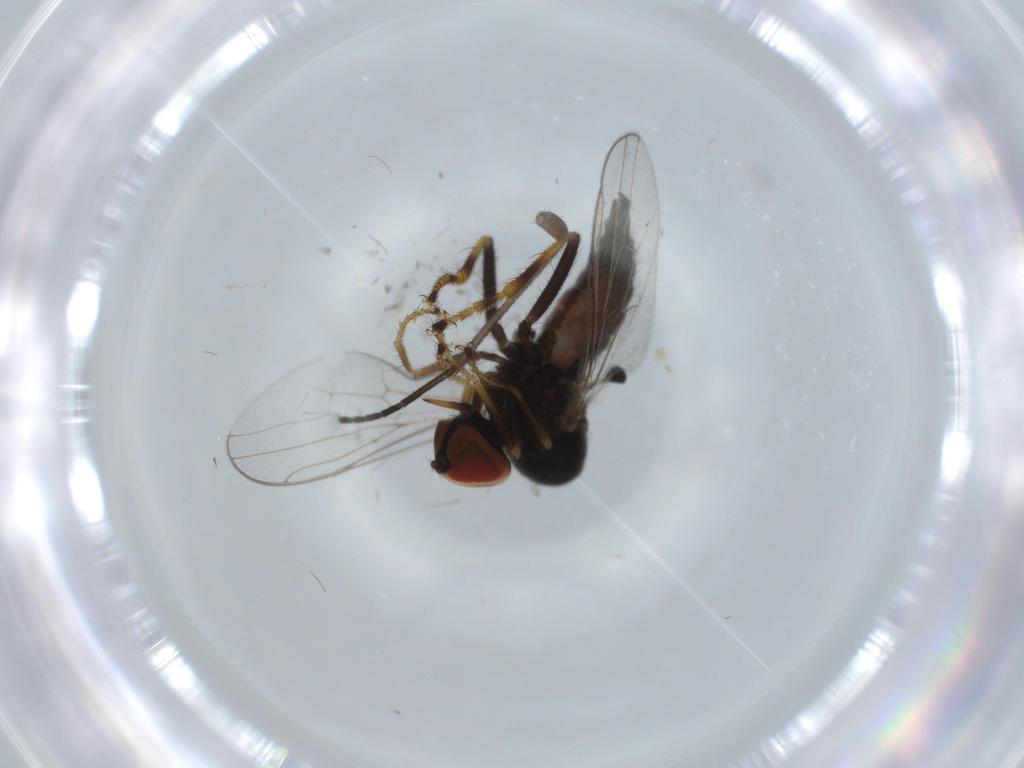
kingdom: Animalia
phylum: Arthropoda
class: Insecta
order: Diptera
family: Hybotidae
